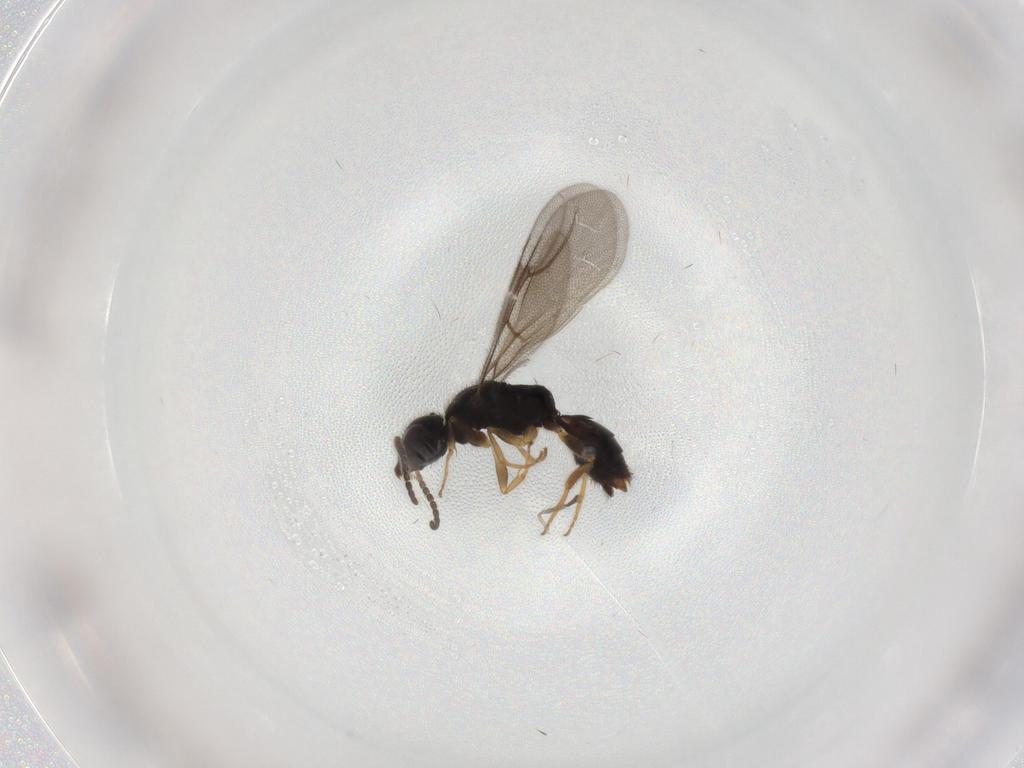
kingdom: Animalia
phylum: Arthropoda
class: Insecta
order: Hymenoptera
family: Bethylidae
